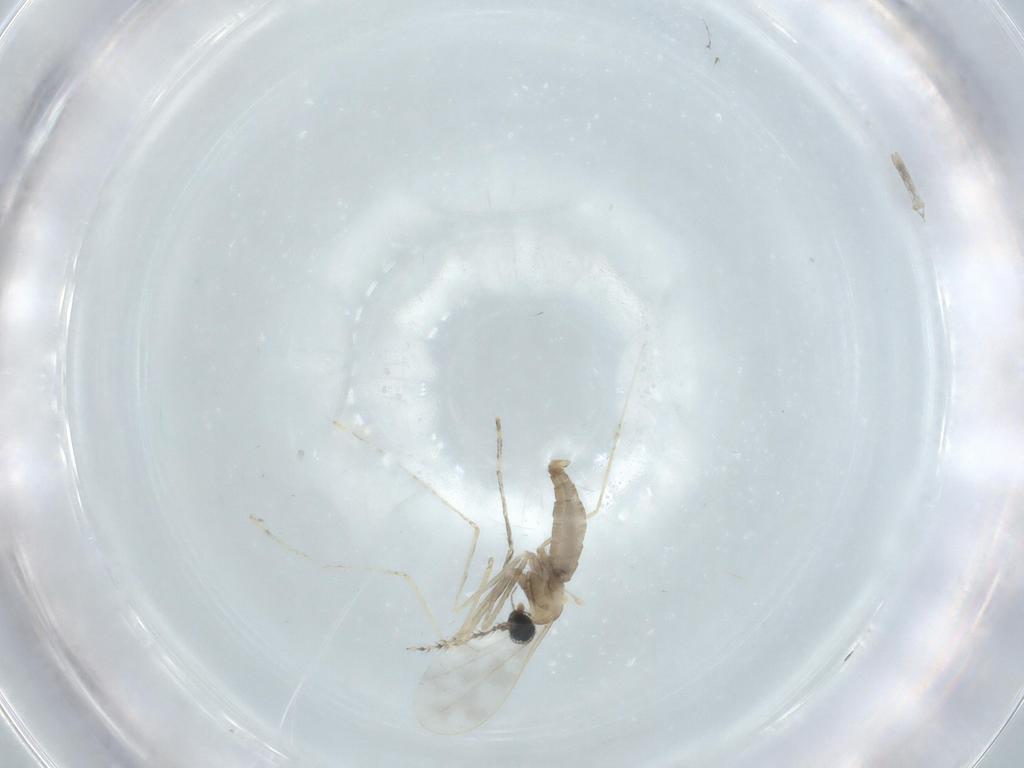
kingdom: Animalia
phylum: Arthropoda
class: Insecta
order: Diptera
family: Cecidomyiidae
